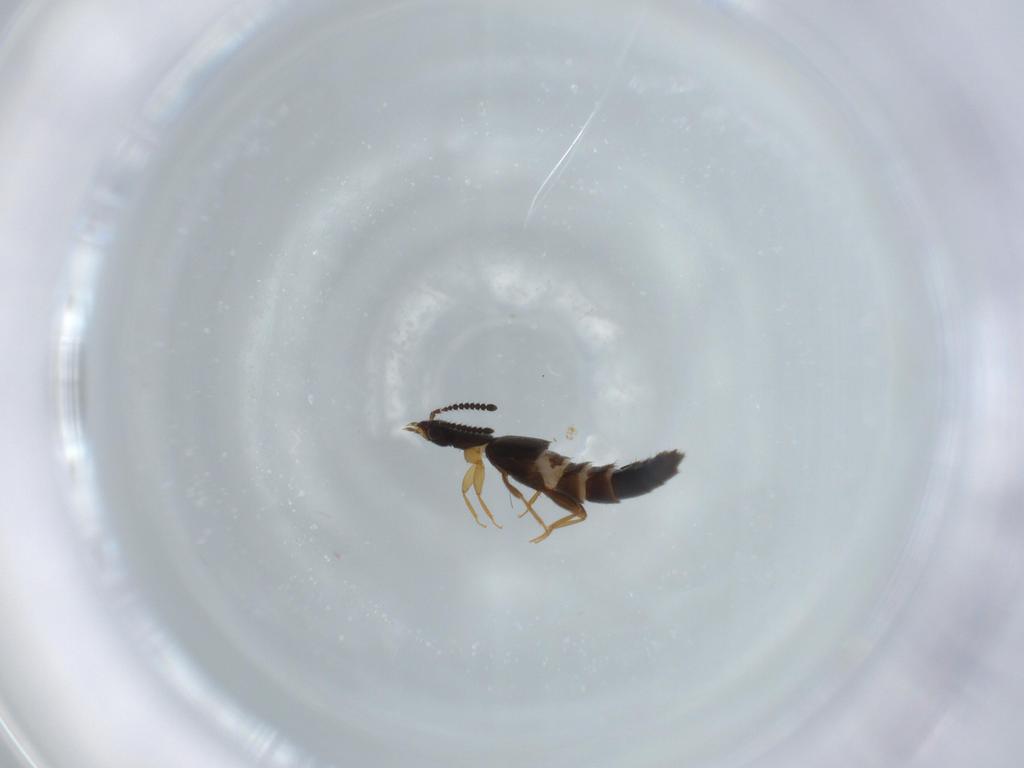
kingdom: Animalia
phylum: Arthropoda
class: Insecta
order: Coleoptera
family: Staphylinidae
